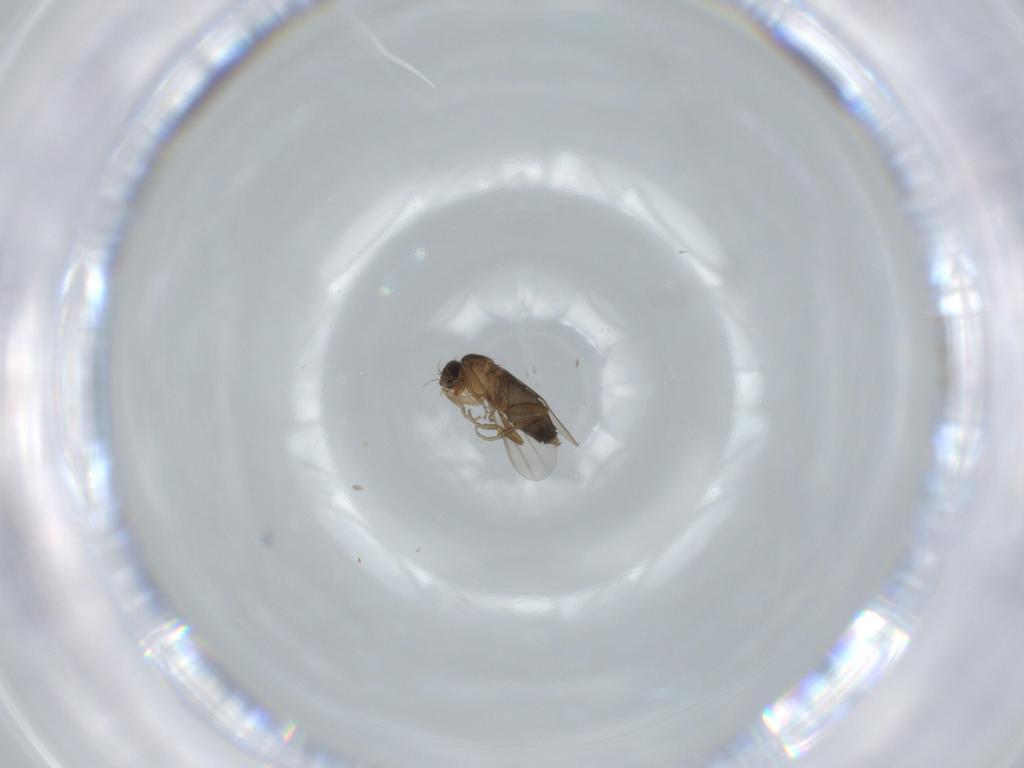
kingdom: Animalia
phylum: Arthropoda
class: Insecta
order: Diptera
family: Phoridae
